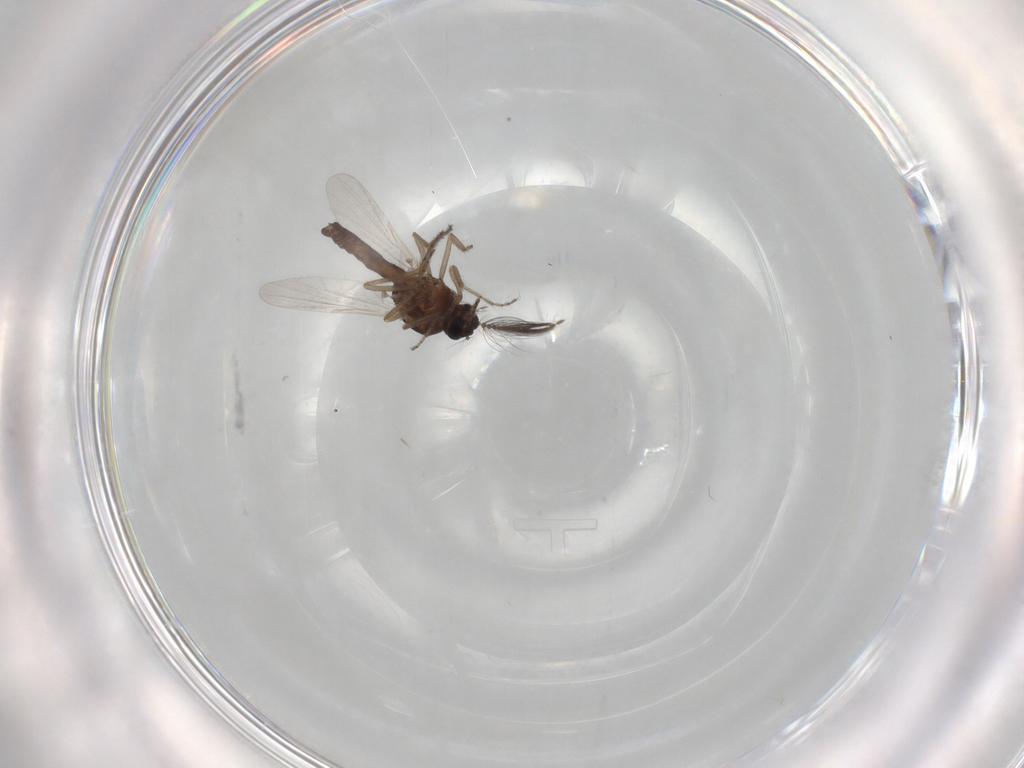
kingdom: Animalia
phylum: Arthropoda
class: Insecta
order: Diptera
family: Ceratopogonidae
